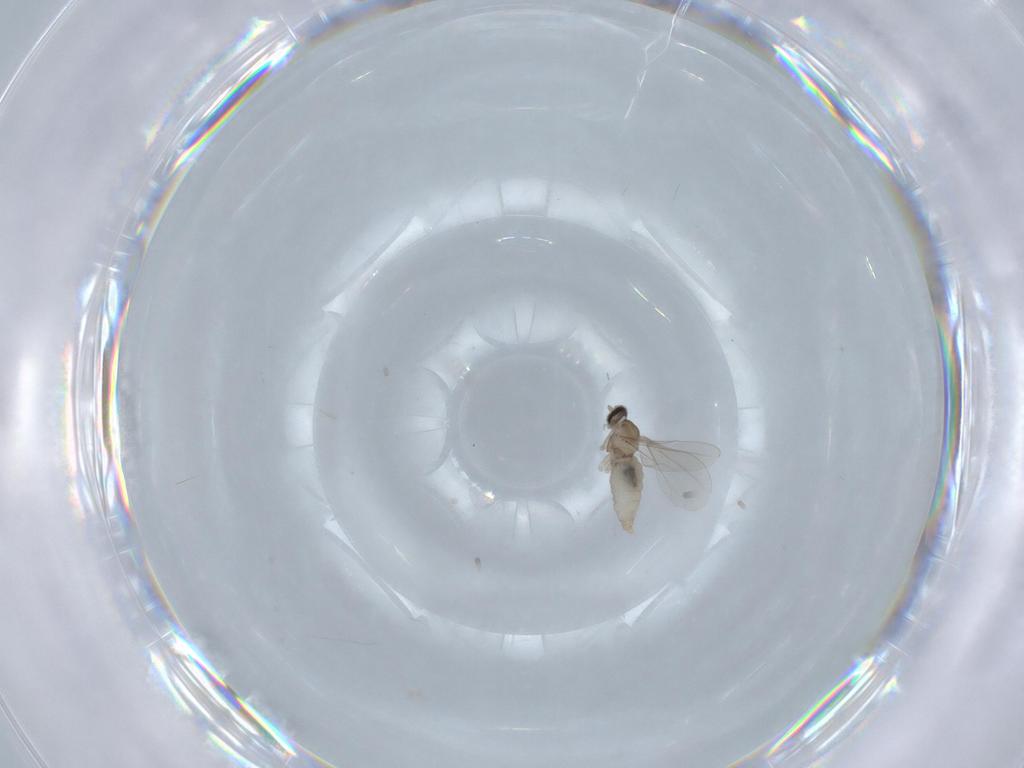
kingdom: Animalia
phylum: Arthropoda
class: Insecta
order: Diptera
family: Cecidomyiidae
